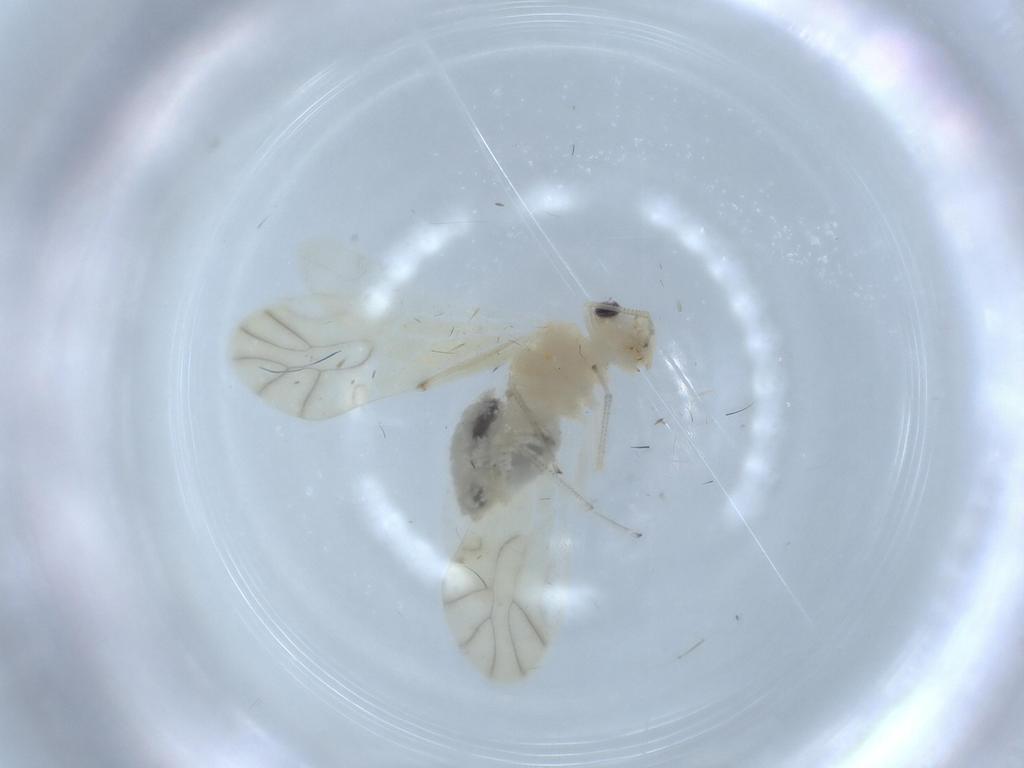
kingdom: Animalia
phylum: Arthropoda
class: Insecta
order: Psocodea
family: Caeciliusidae
